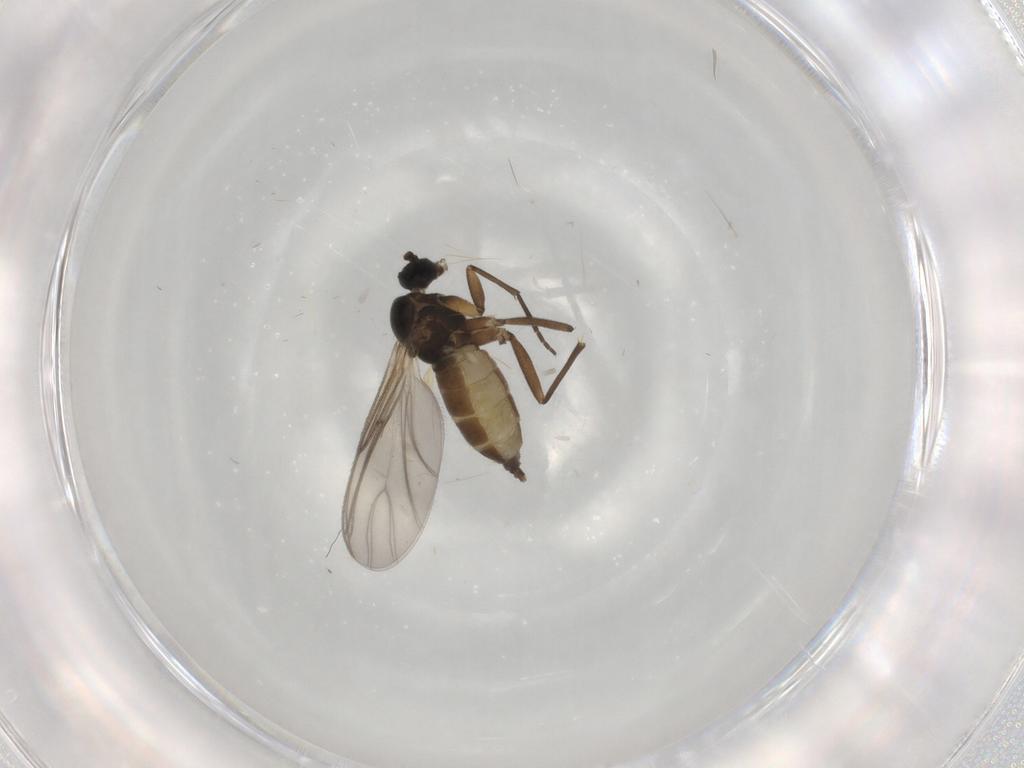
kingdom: Animalia
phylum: Arthropoda
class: Insecta
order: Diptera
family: Sciaridae
